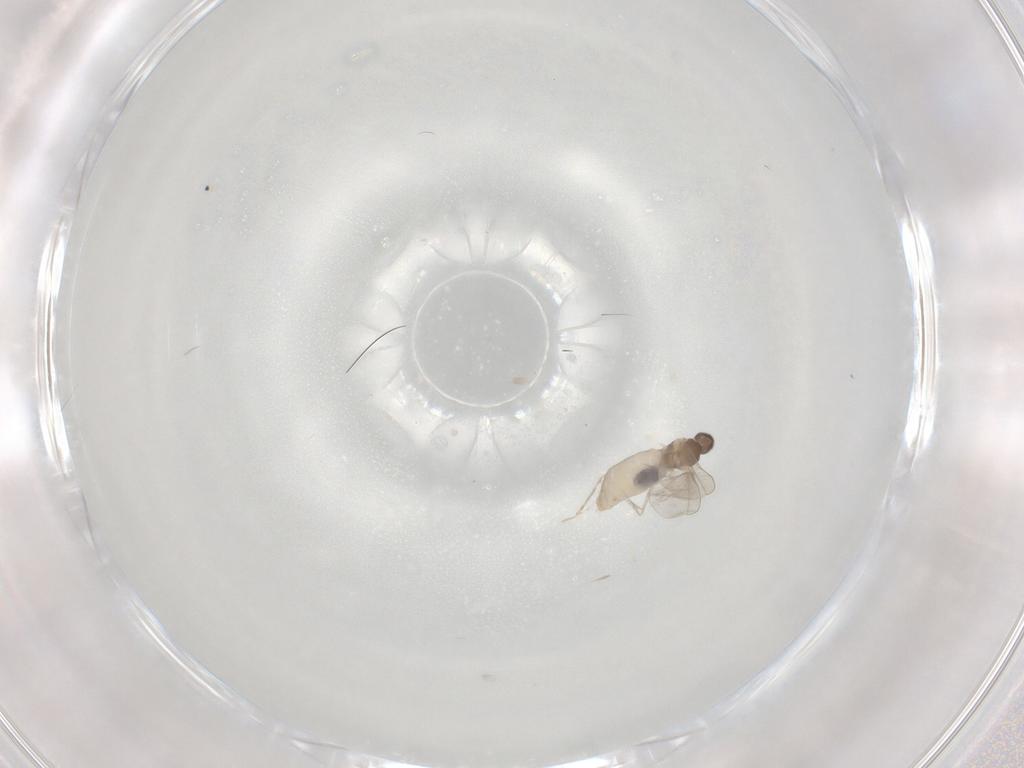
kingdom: Animalia
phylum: Arthropoda
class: Insecta
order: Diptera
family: Cecidomyiidae
